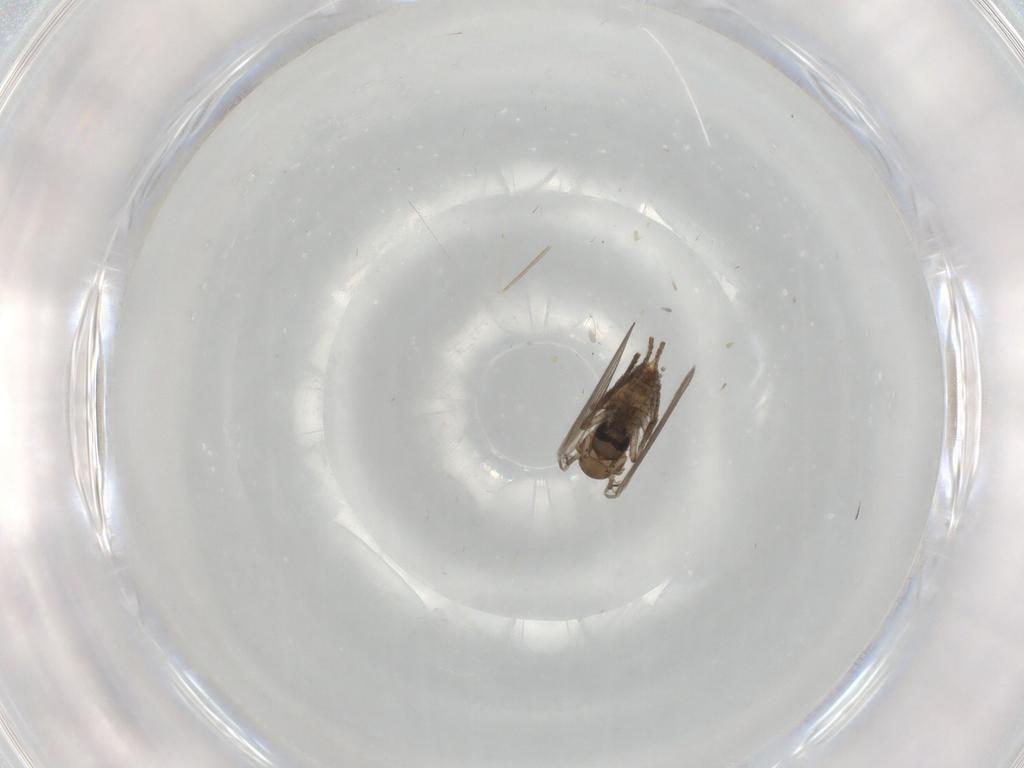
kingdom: Animalia
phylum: Arthropoda
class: Insecta
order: Diptera
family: Psychodidae
